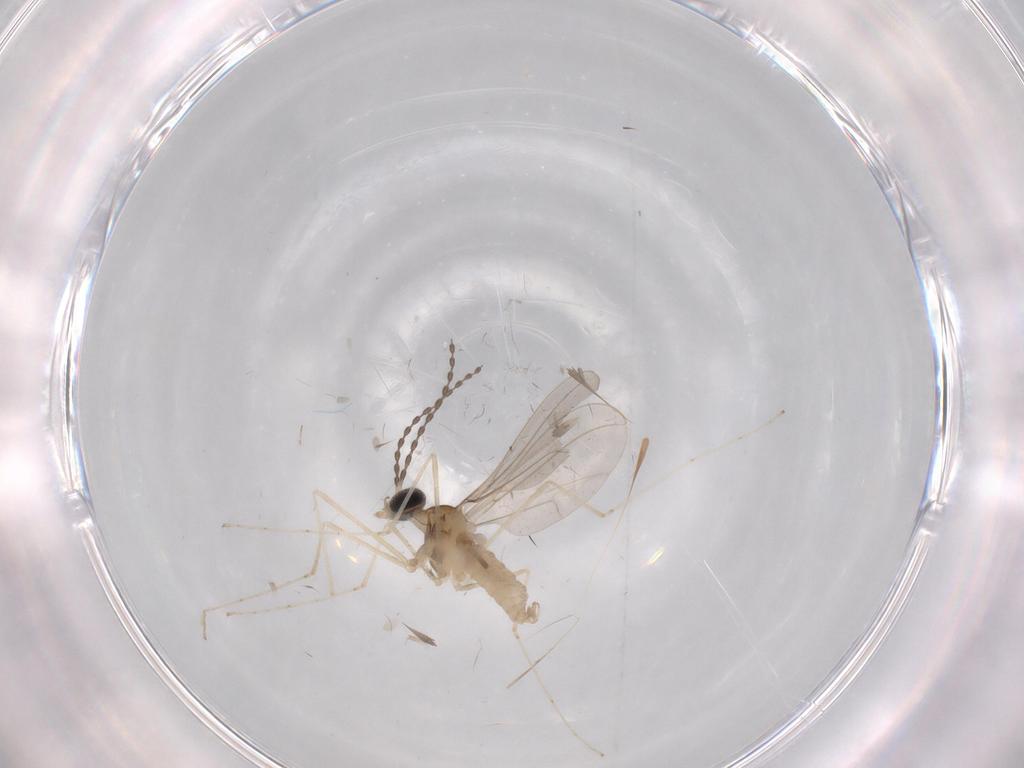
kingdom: Animalia
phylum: Arthropoda
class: Insecta
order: Diptera
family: Cecidomyiidae
